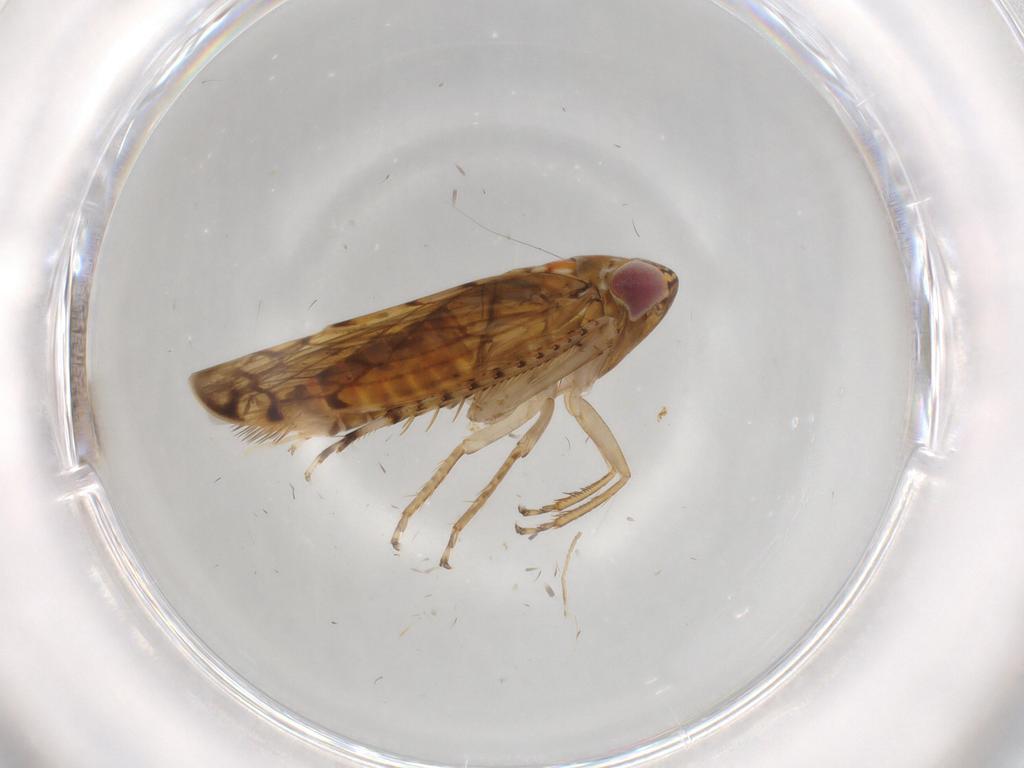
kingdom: Animalia
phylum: Arthropoda
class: Insecta
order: Hemiptera
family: Cicadellidae
